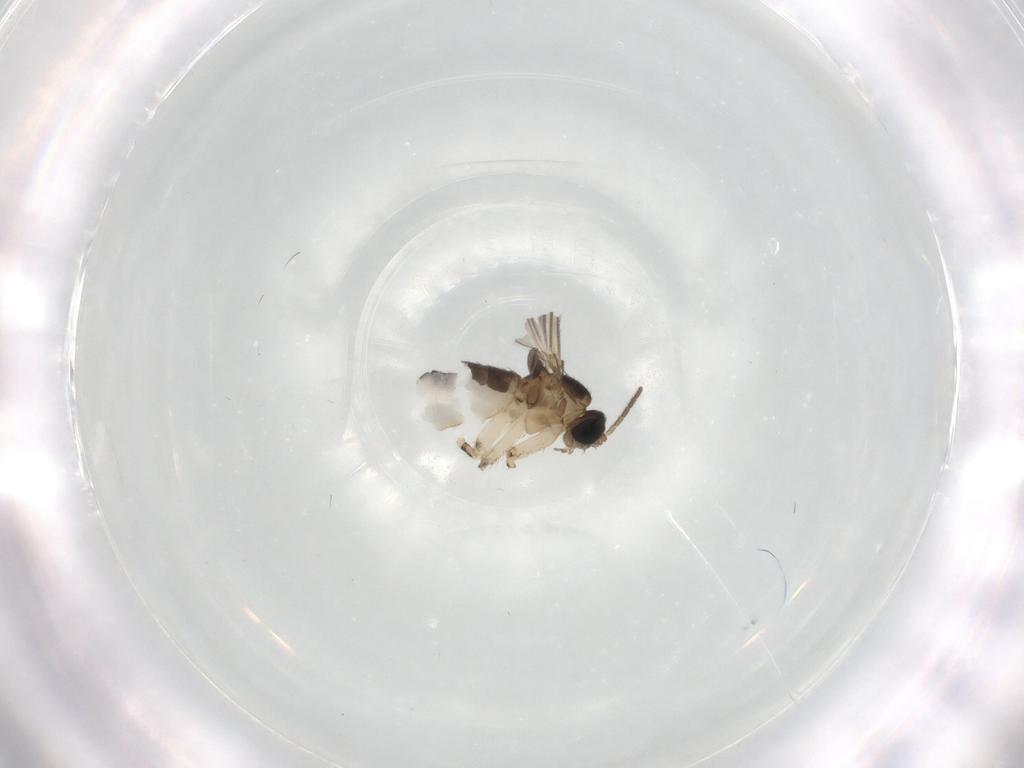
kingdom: Animalia
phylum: Arthropoda
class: Insecta
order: Diptera
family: Sciaridae
